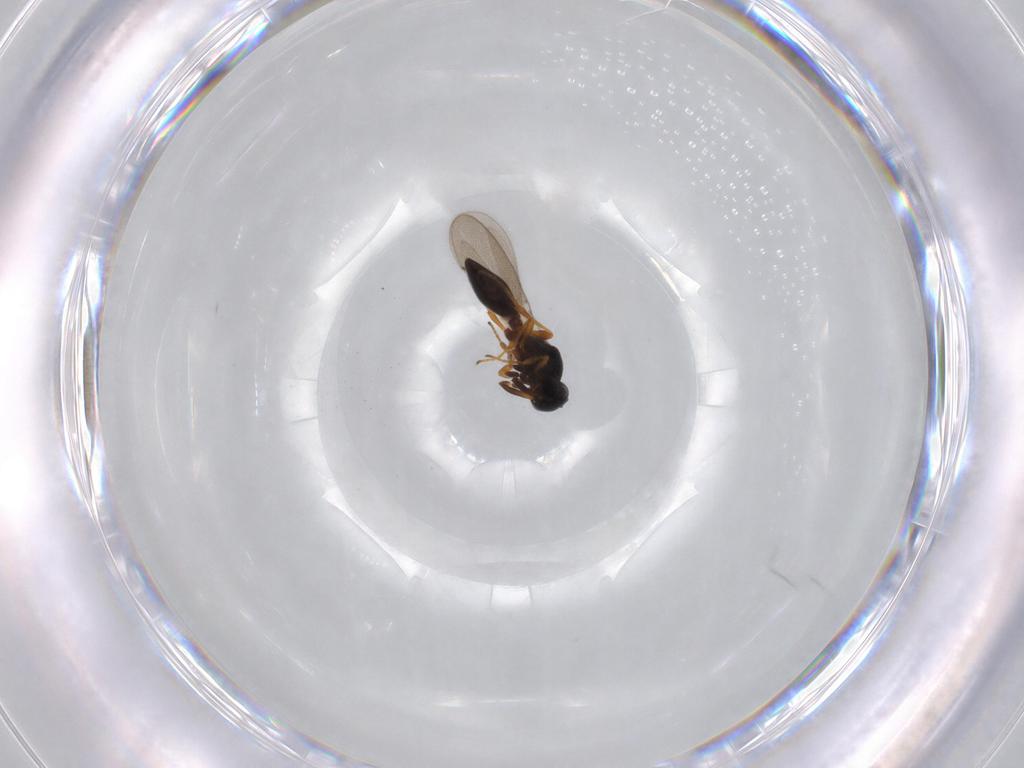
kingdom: Animalia
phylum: Arthropoda
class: Insecta
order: Hymenoptera
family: Platygastridae
